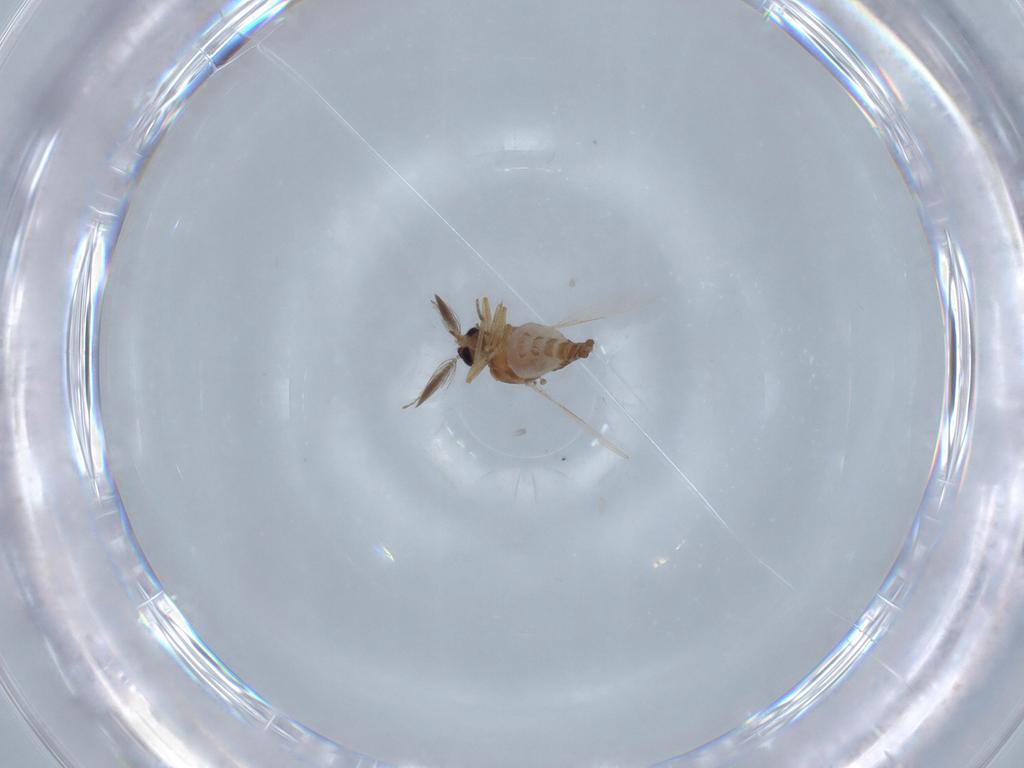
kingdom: Animalia
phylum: Arthropoda
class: Insecta
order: Diptera
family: Ceratopogonidae
